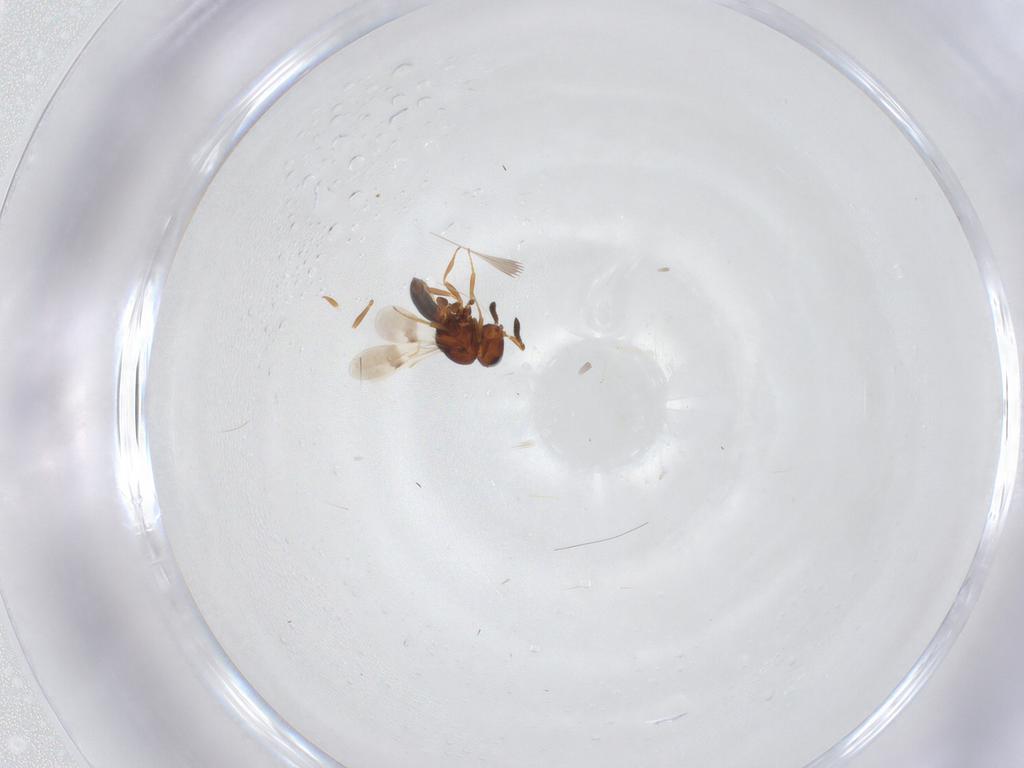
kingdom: Animalia
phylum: Arthropoda
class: Insecta
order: Hymenoptera
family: Scelionidae
